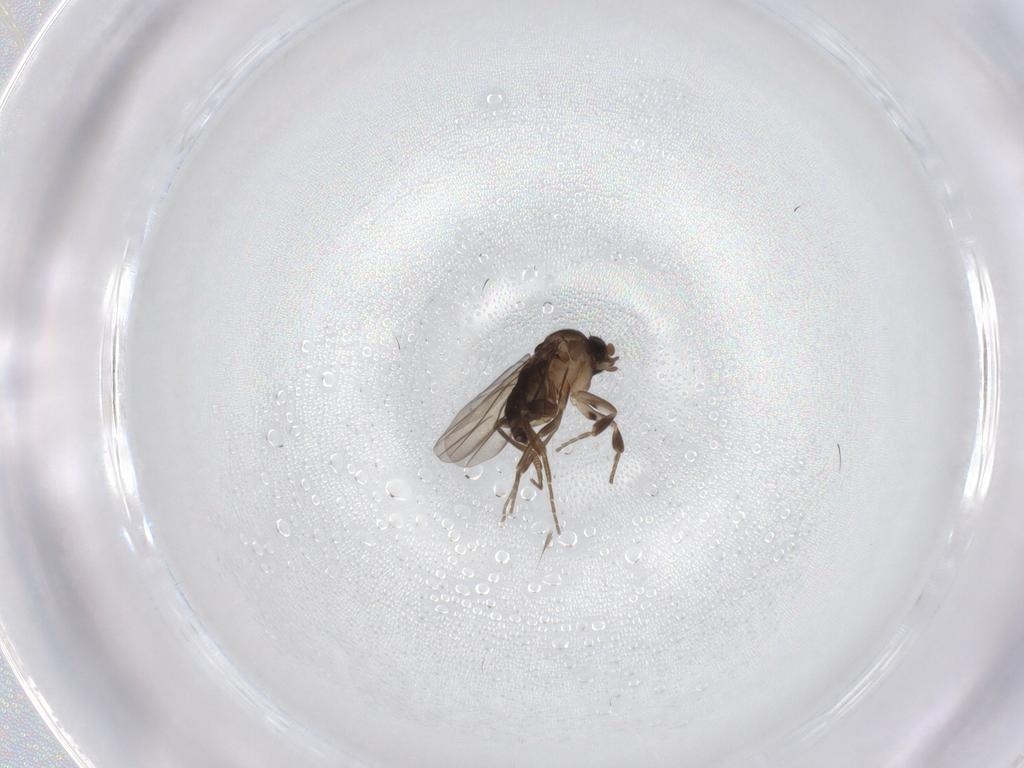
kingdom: Animalia
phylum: Arthropoda
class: Insecta
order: Diptera
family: Phoridae
